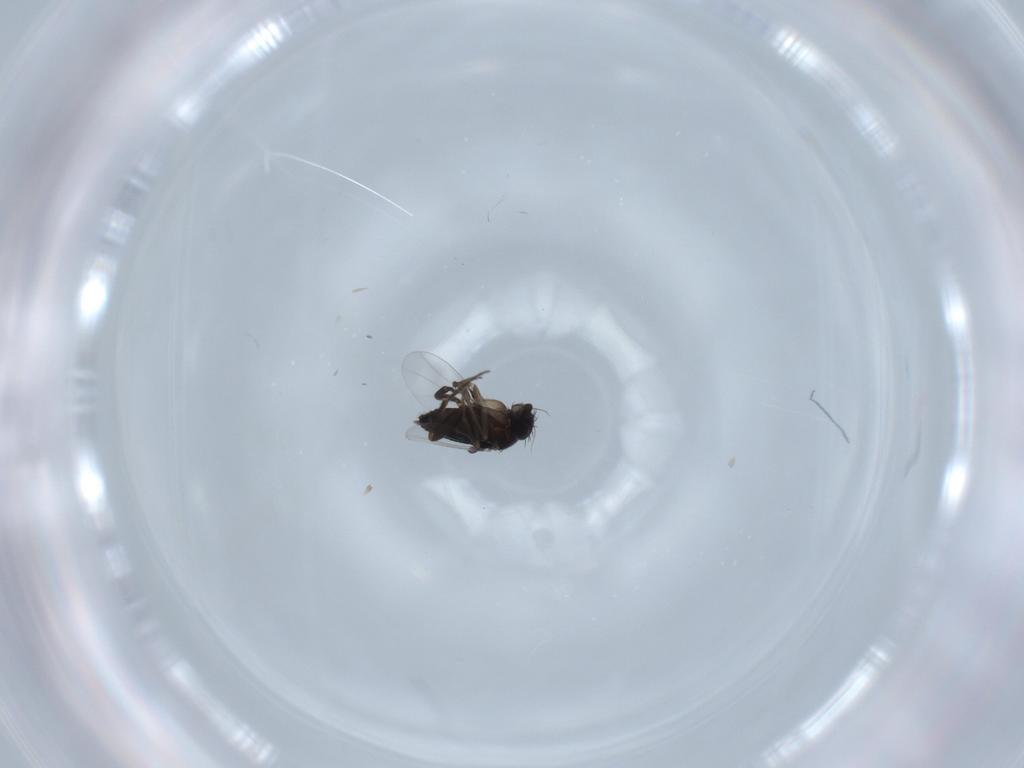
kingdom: Animalia
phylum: Arthropoda
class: Insecta
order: Diptera
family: Phoridae
